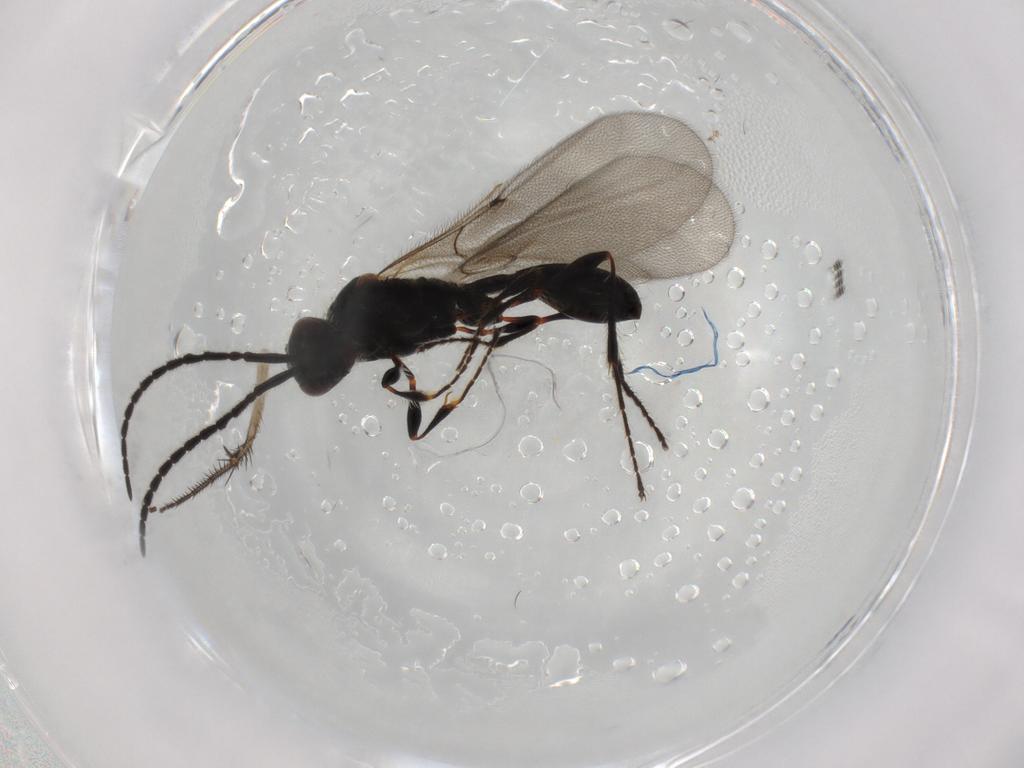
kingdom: Animalia
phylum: Arthropoda
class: Insecta
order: Hymenoptera
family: Diapriidae
